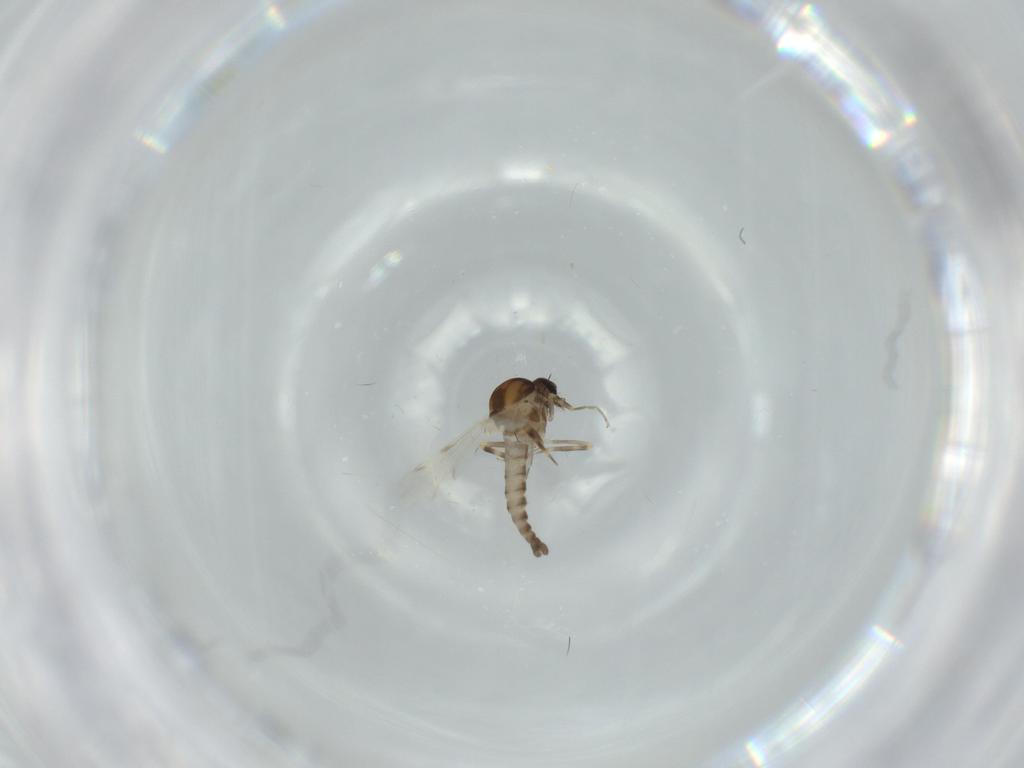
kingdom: Animalia
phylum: Arthropoda
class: Insecta
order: Diptera
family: Ceratopogonidae
